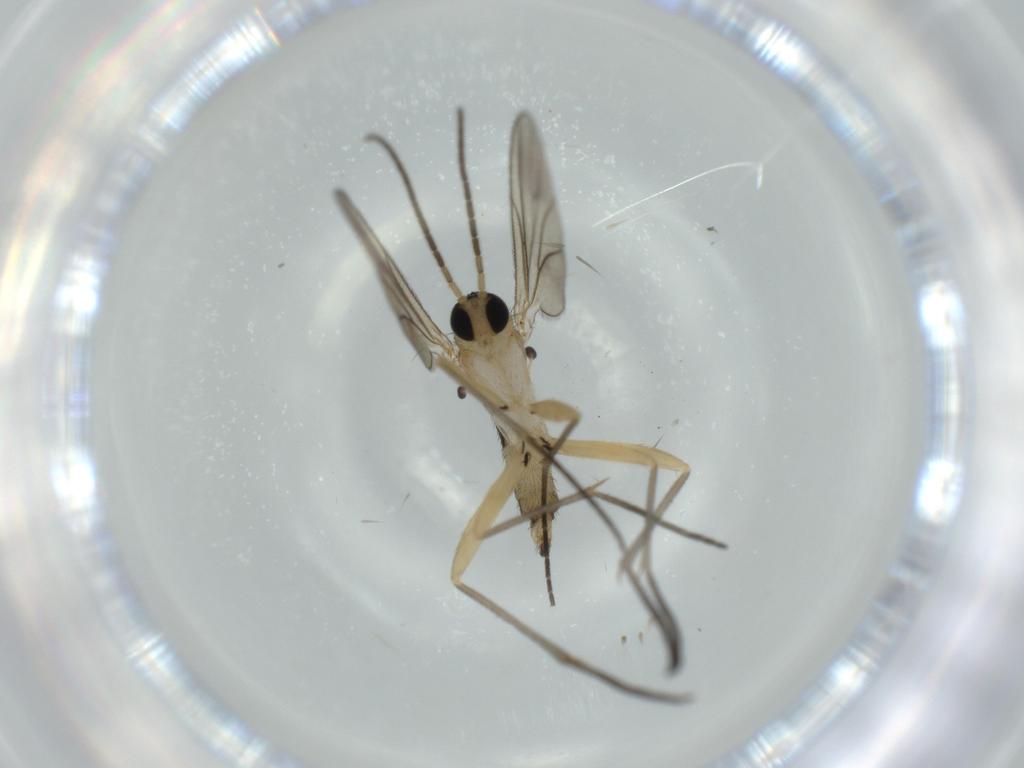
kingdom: Animalia
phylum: Arthropoda
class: Insecta
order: Diptera
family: Sciaridae
